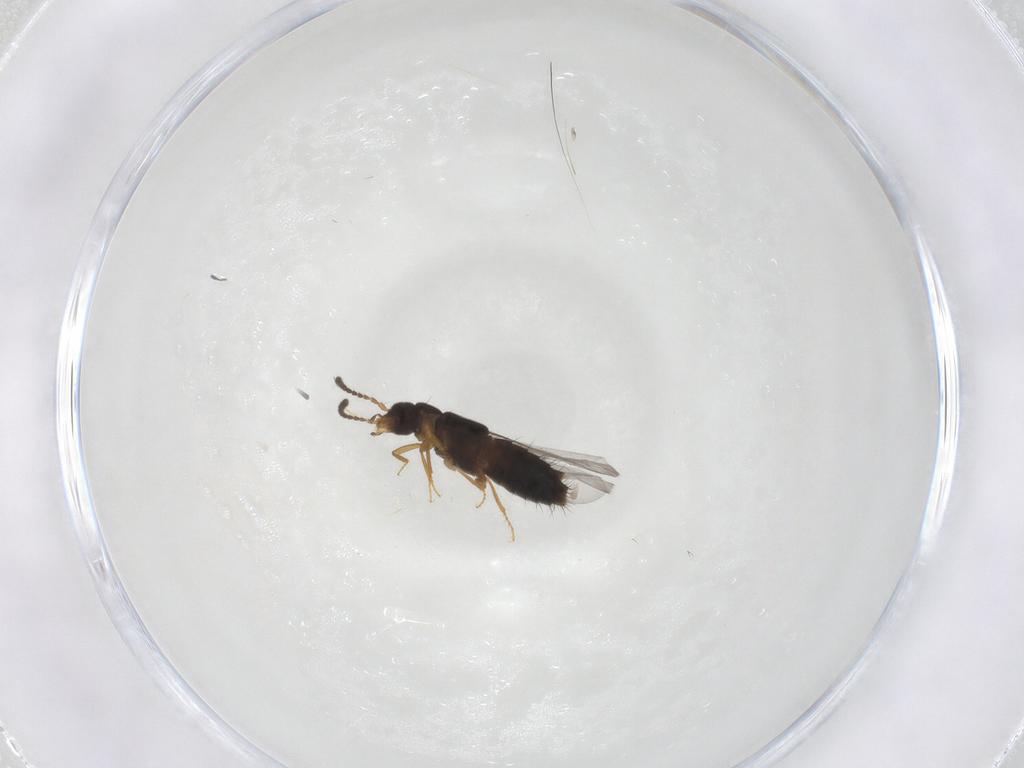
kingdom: Animalia
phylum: Arthropoda
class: Insecta
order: Coleoptera
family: Staphylinidae
